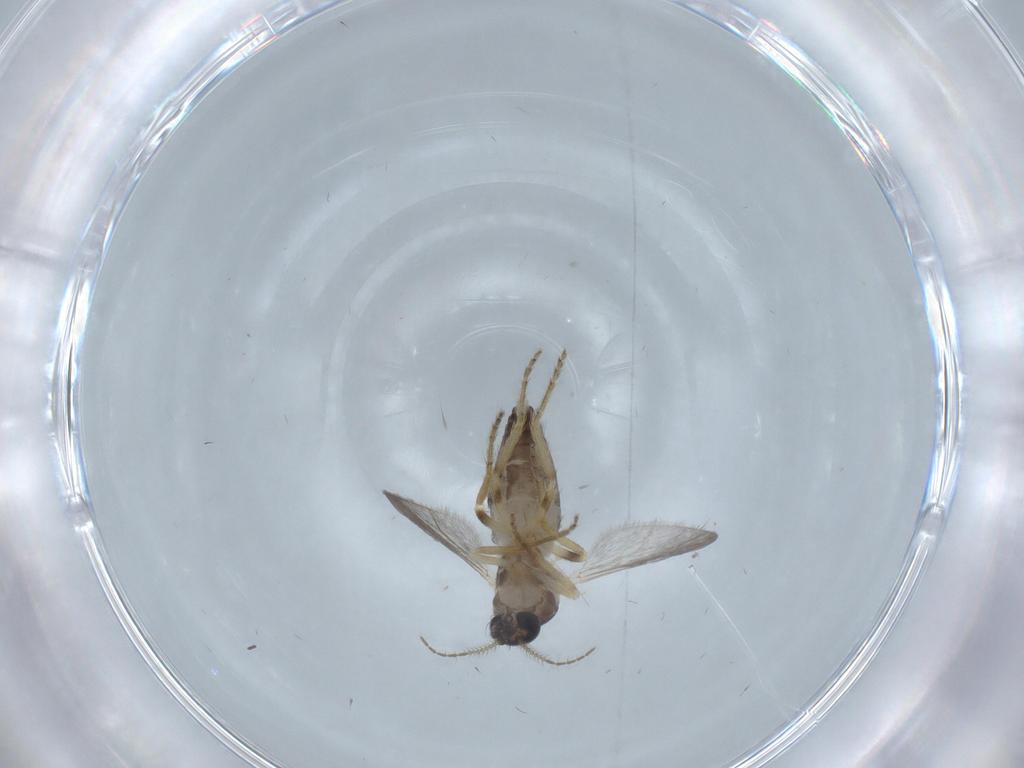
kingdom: Animalia
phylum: Arthropoda
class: Insecta
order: Diptera
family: Ceratopogonidae
